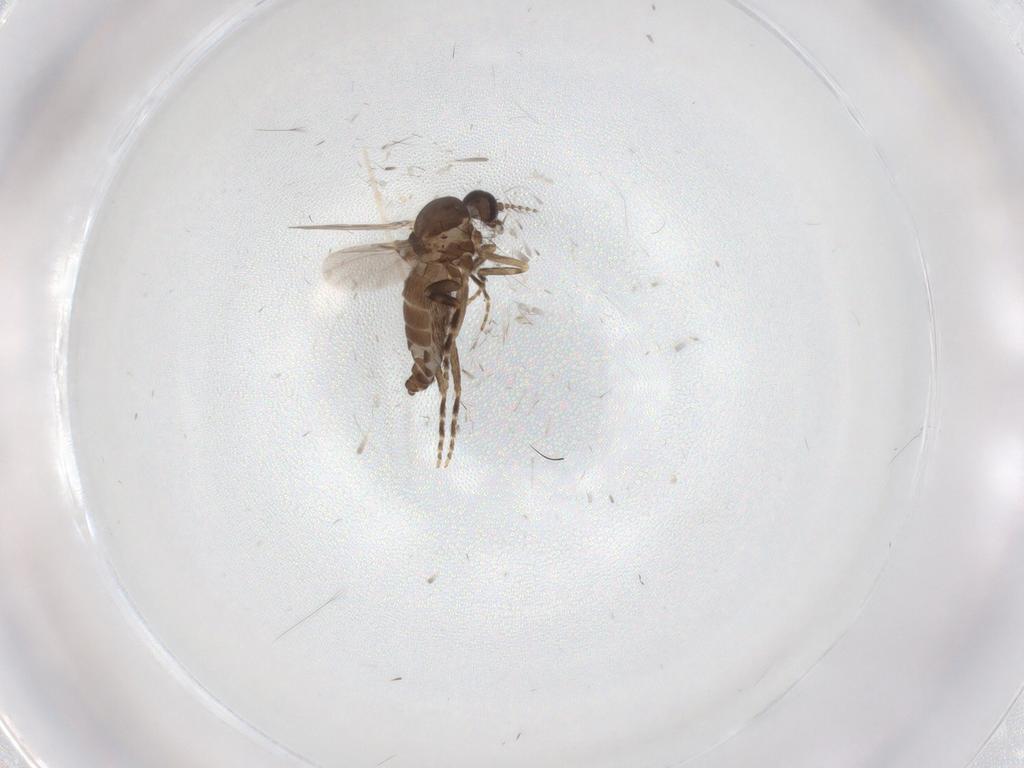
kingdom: Animalia
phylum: Arthropoda
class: Insecta
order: Diptera
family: Ceratopogonidae
